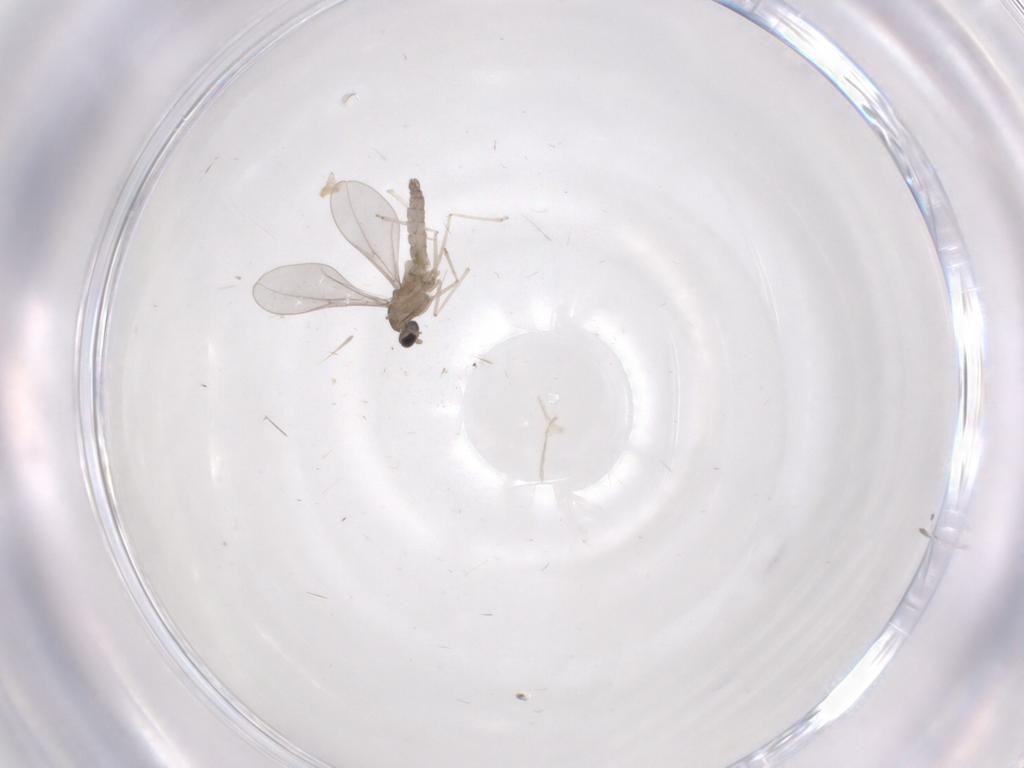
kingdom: Animalia
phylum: Arthropoda
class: Insecta
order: Diptera
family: Cecidomyiidae
